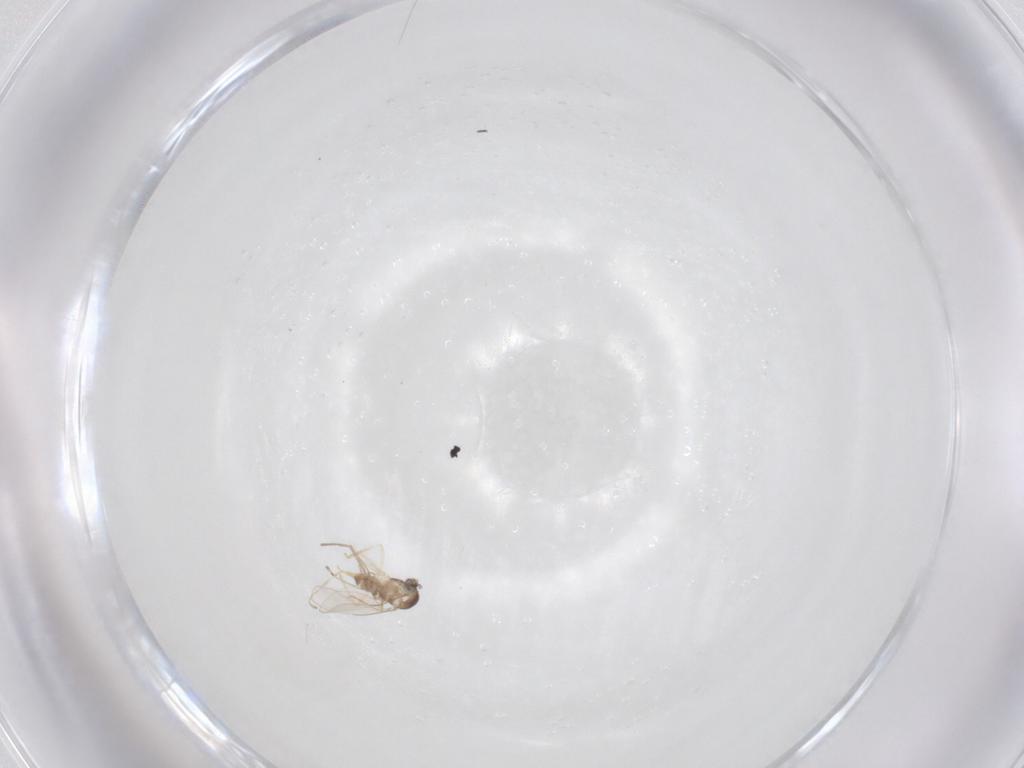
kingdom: Animalia
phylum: Arthropoda
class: Insecta
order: Diptera
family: Cecidomyiidae
